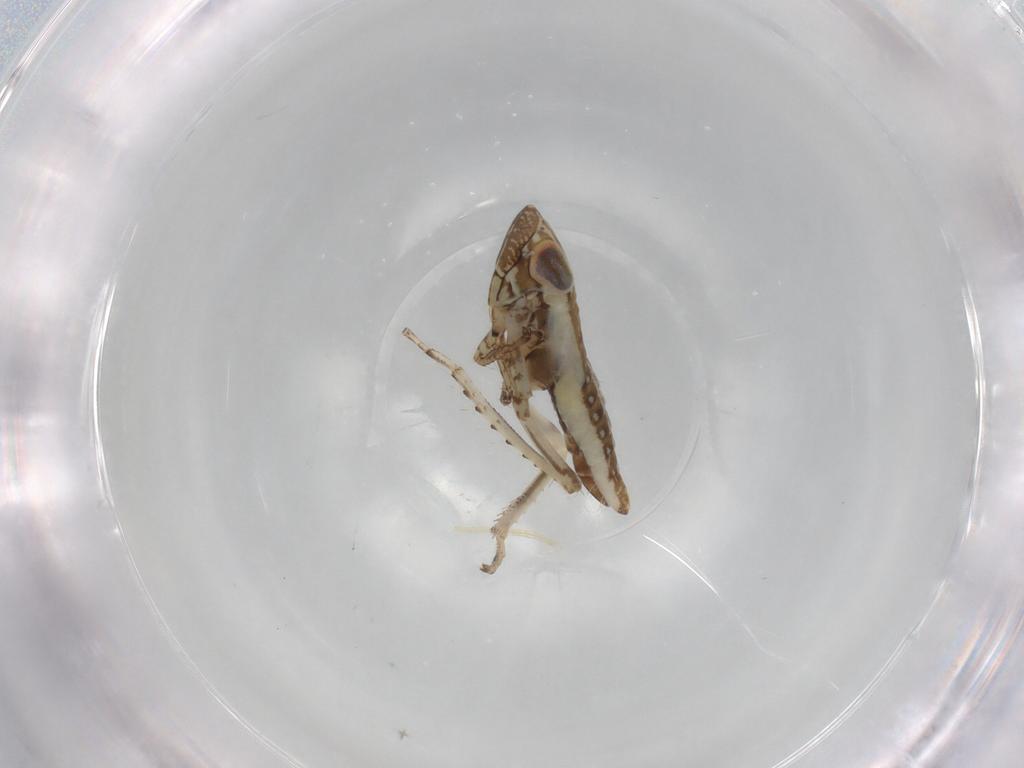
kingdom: Animalia
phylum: Arthropoda
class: Insecta
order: Hemiptera
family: Cicadellidae
